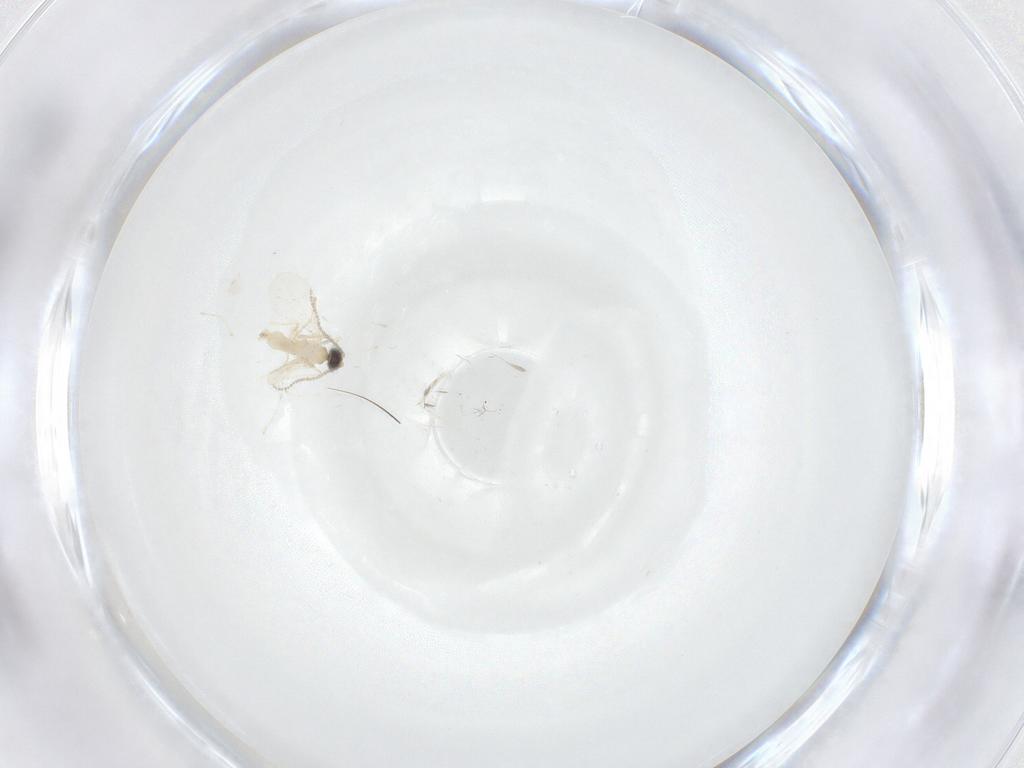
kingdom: Animalia
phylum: Arthropoda
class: Insecta
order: Diptera
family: Cecidomyiidae
